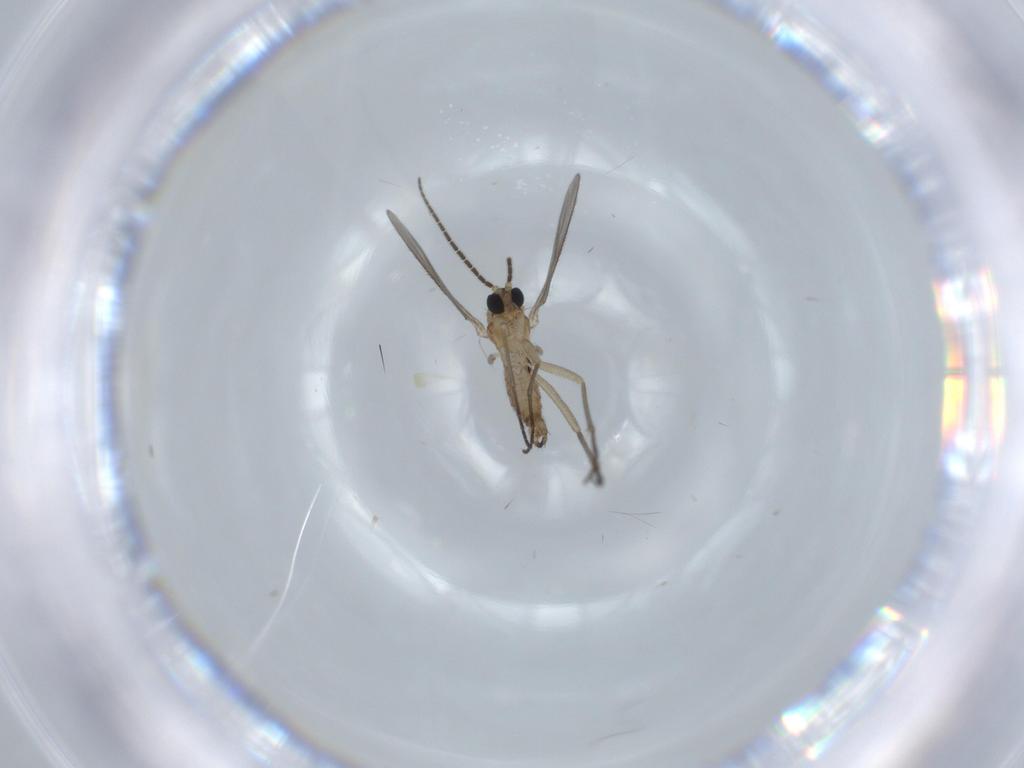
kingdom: Animalia
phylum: Arthropoda
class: Insecta
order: Diptera
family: Sciaridae
